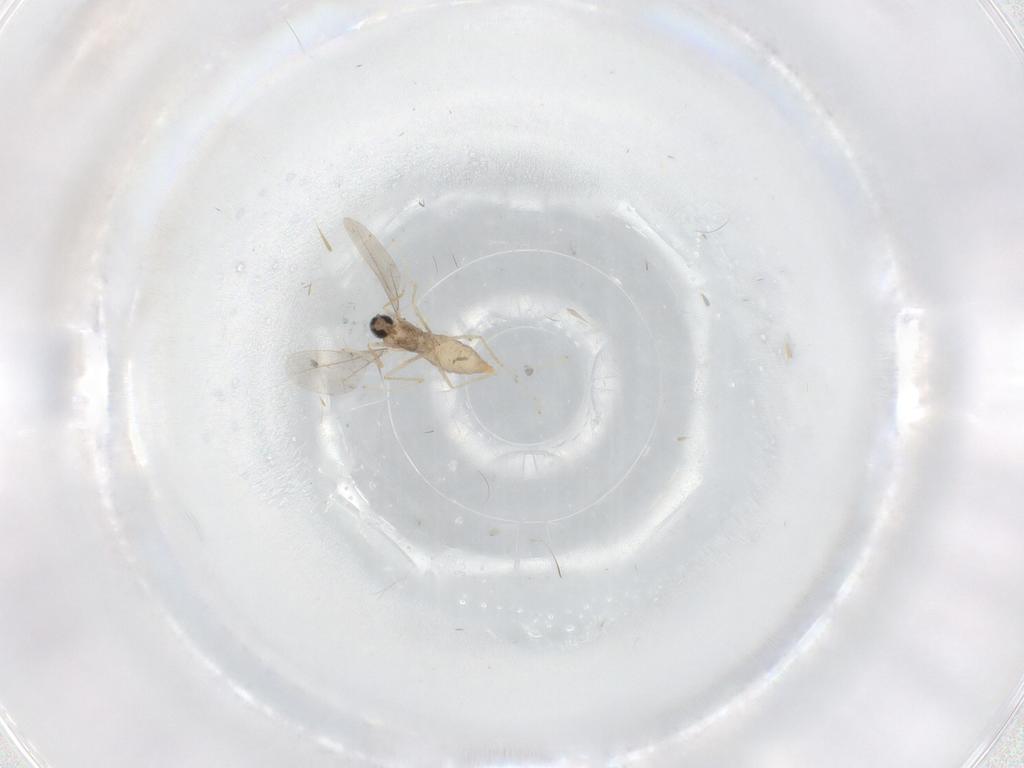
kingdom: Animalia
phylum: Arthropoda
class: Insecta
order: Diptera
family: Cecidomyiidae
